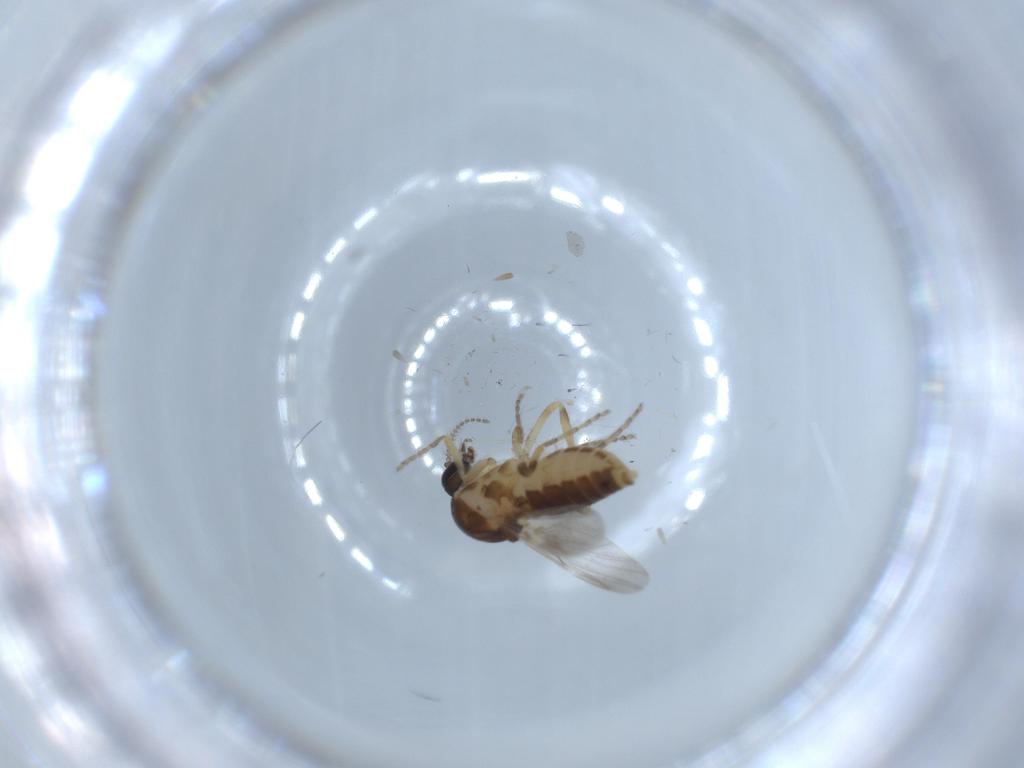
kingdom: Animalia
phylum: Arthropoda
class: Insecta
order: Diptera
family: Ceratopogonidae
